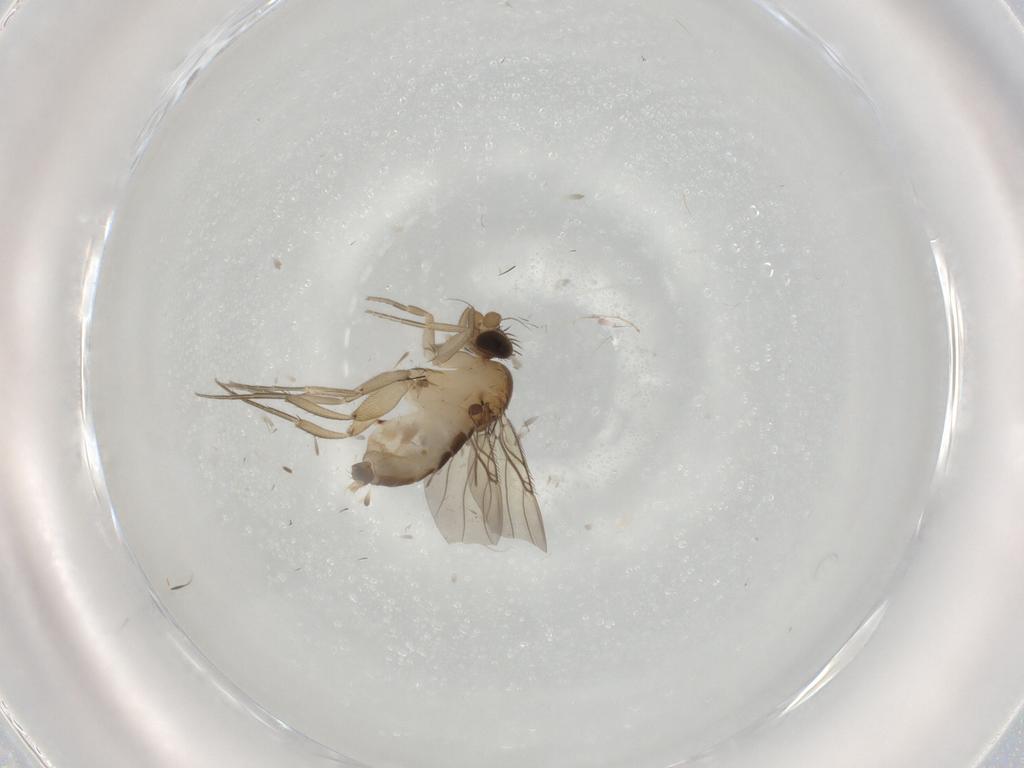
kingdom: Animalia
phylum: Arthropoda
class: Insecta
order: Diptera
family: Phoridae
